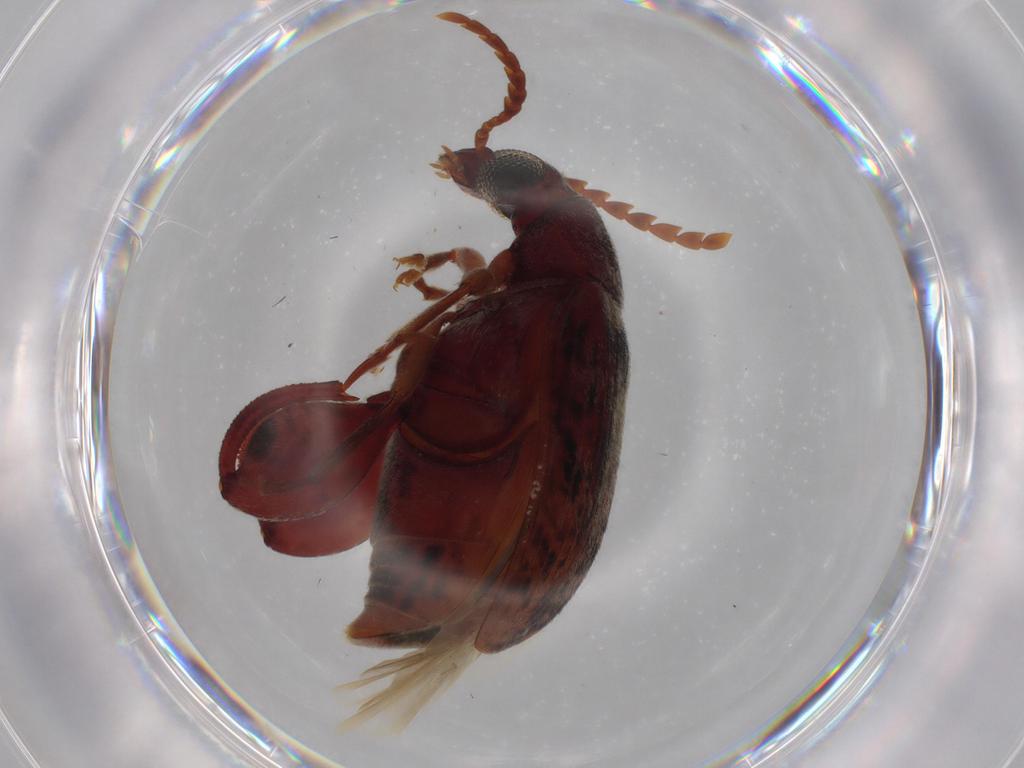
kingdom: Animalia
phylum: Arthropoda
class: Insecta
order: Coleoptera
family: Chrysomelidae
